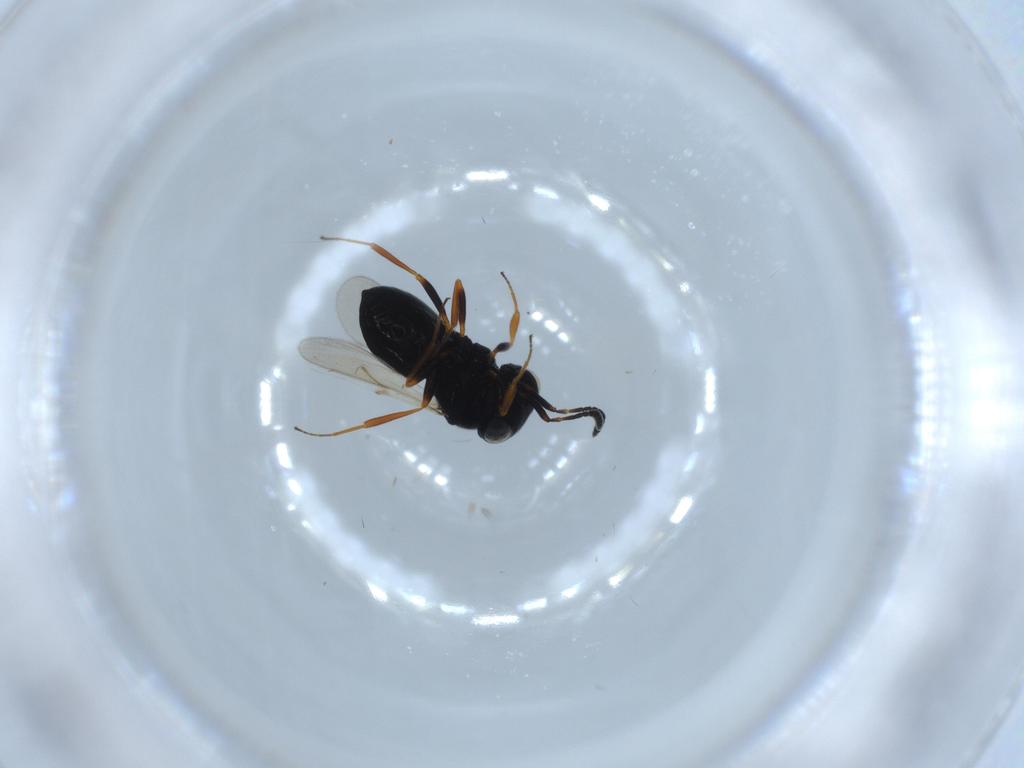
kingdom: Animalia
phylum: Arthropoda
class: Insecta
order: Hymenoptera
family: Scelionidae
